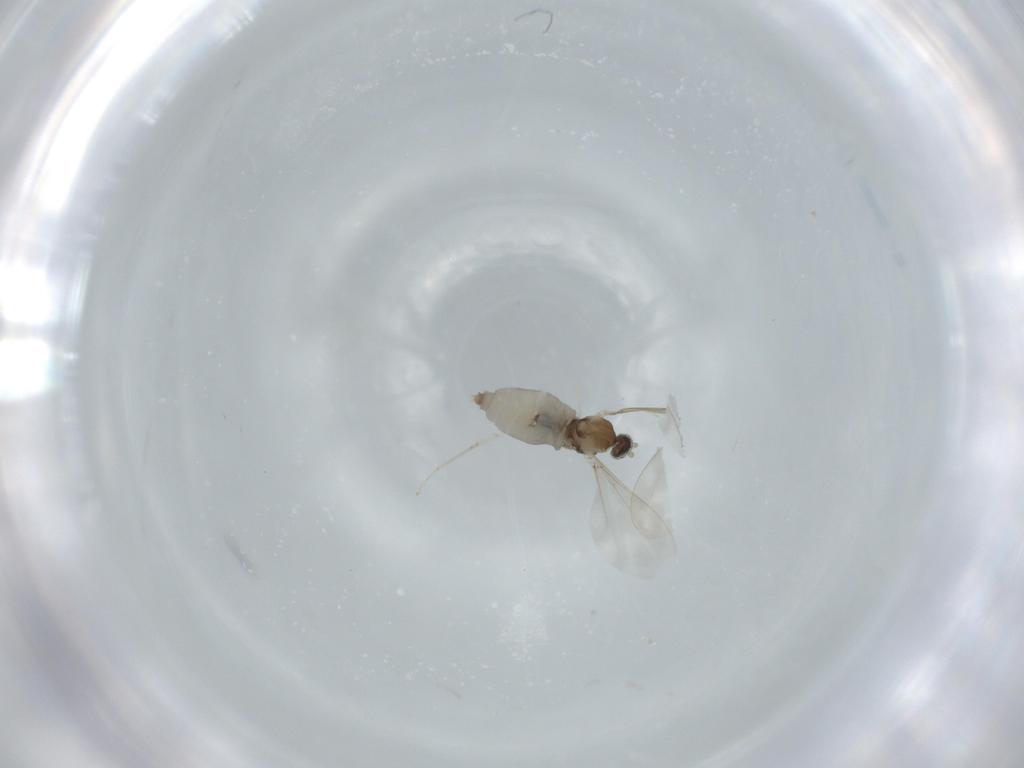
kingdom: Animalia
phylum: Arthropoda
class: Insecta
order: Diptera
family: Cecidomyiidae
